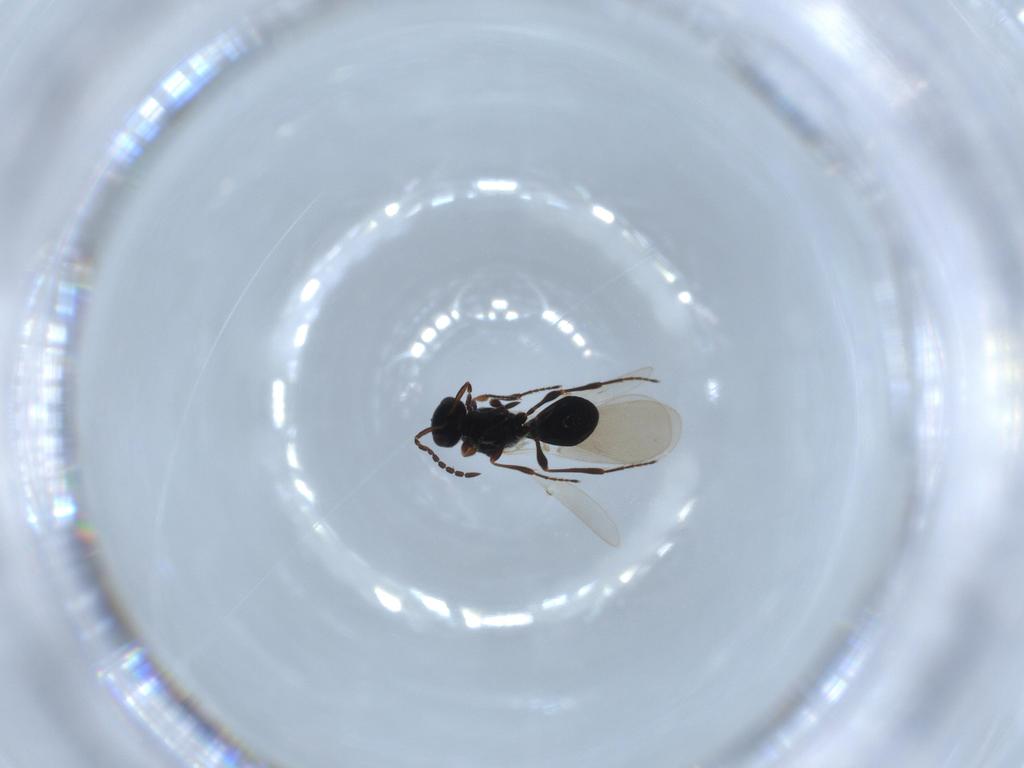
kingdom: Animalia
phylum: Arthropoda
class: Insecta
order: Hymenoptera
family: Platygastridae
